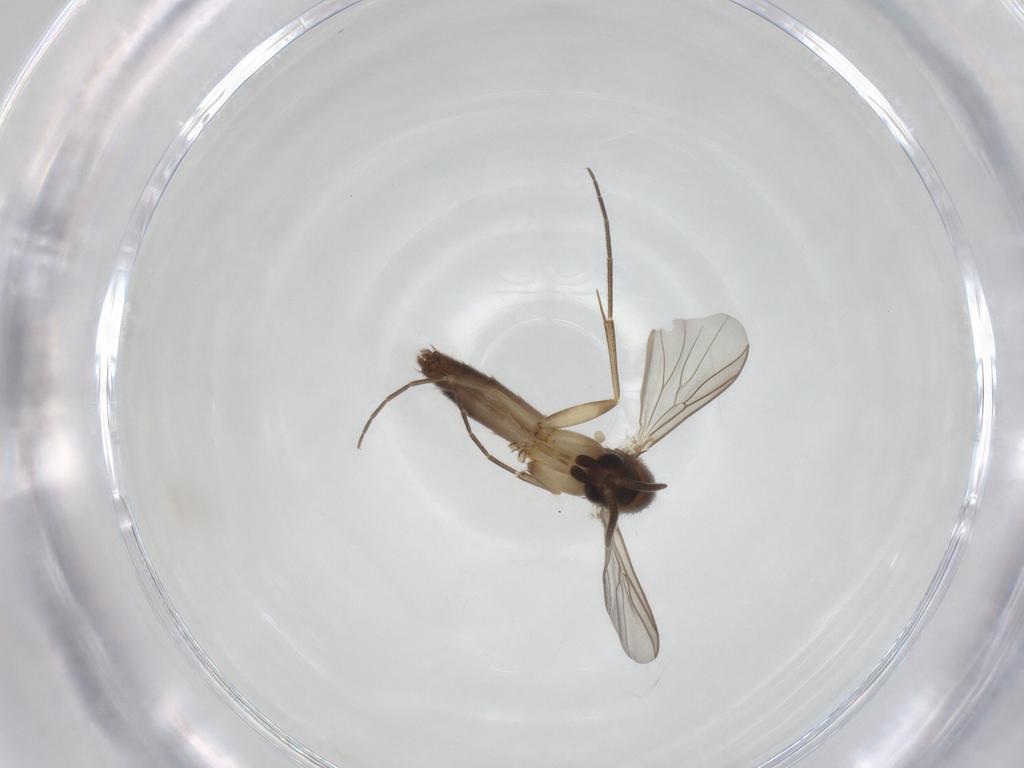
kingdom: Animalia
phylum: Arthropoda
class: Insecta
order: Diptera
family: Mycetophilidae
